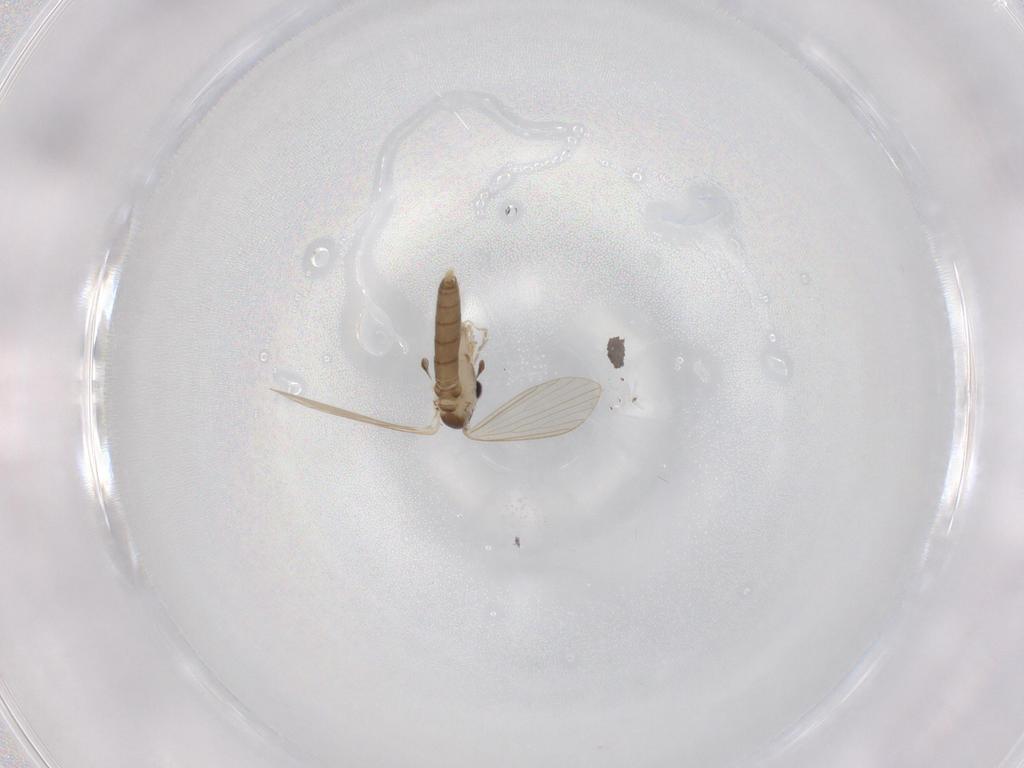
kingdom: Animalia
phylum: Arthropoda
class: Insecta
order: Diptera
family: Psychodidae
